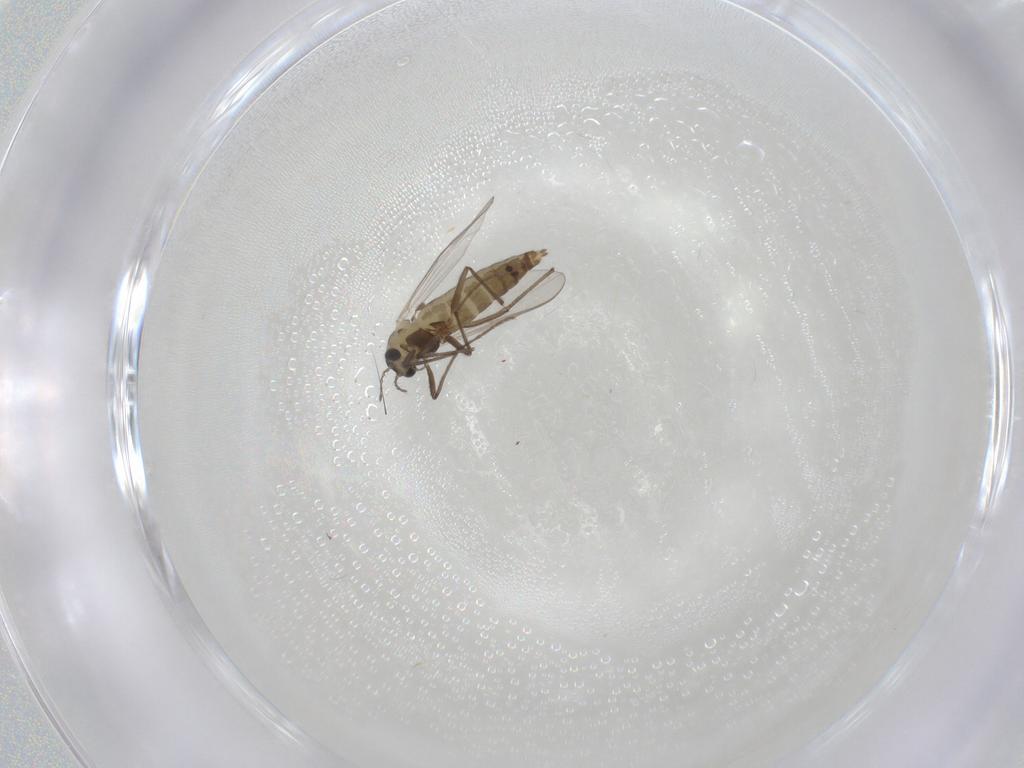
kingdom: Animalia
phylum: Arthropoda
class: Insecta
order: Diptera
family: Chironomidae
